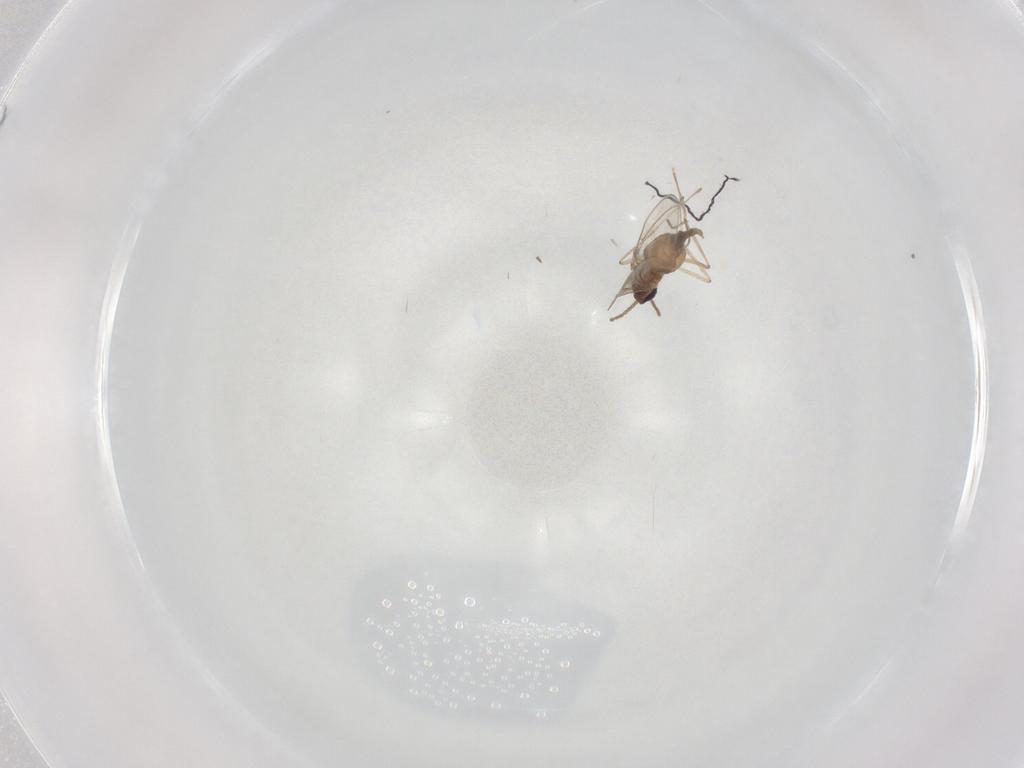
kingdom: Animalia
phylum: Arthropoda
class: Insecta
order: Diptera
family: Cecidomyiidae
